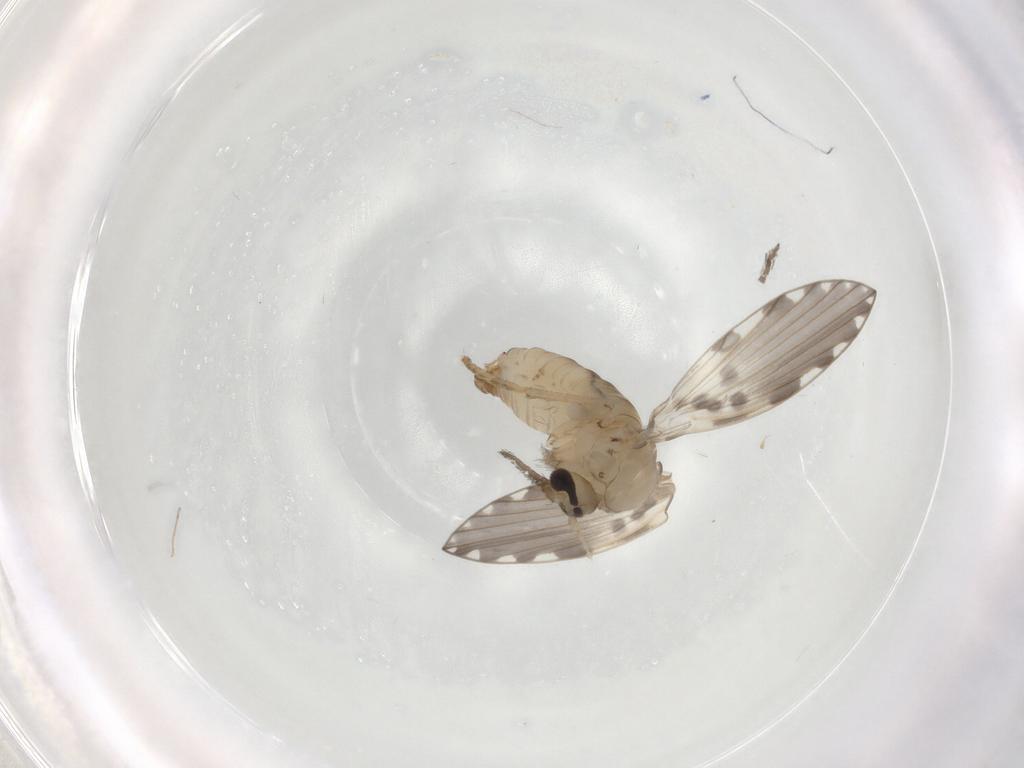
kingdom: Animalia
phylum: Arthropoda
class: Insecta
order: Diptera
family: Psychodidae
